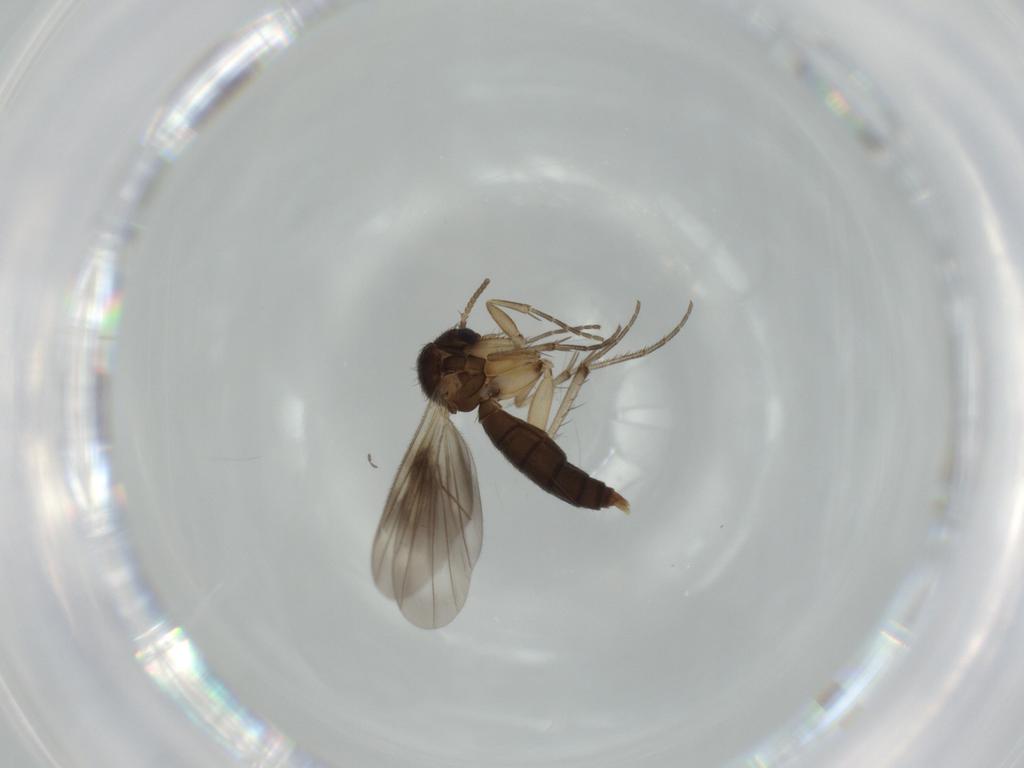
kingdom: Animalia
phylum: Arthropoda
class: Insecta
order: Diptera
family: Chironomidae
